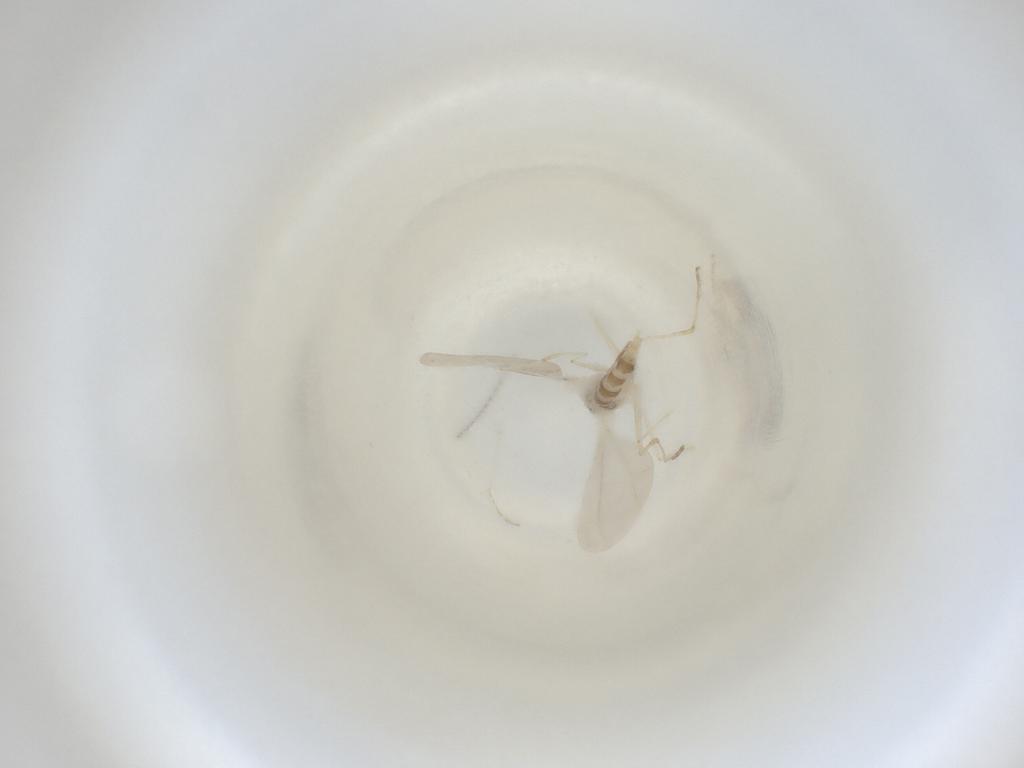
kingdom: Animalia
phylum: Arthropoda
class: Insecta
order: Diptera
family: Cecidomyiidae
